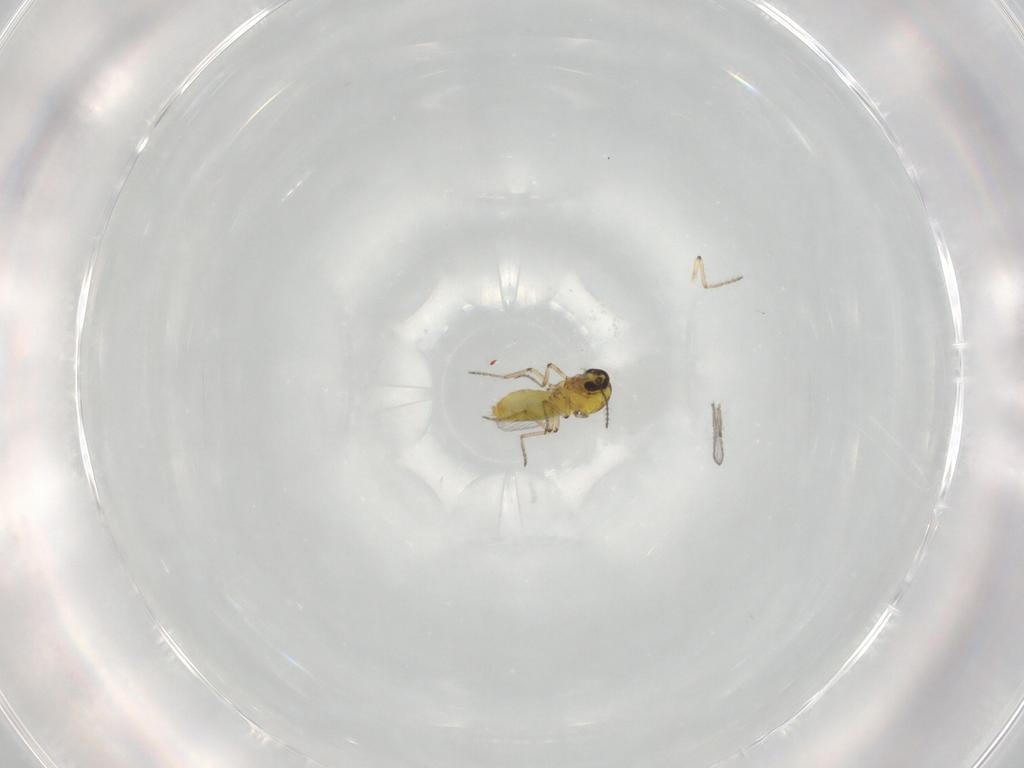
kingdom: Animalia
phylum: Arthropoda
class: Insecta
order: Diptera
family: Ceratopogonidae
